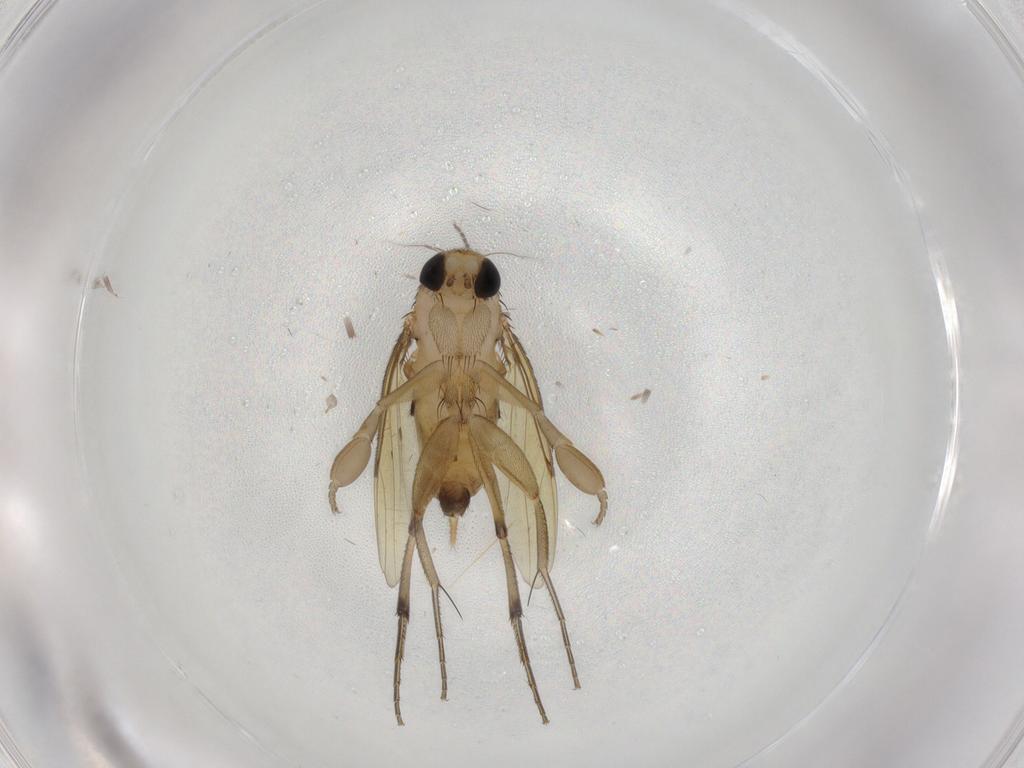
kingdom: Animalia
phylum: Arthropoda
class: Insecta
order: Diptera
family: Phoridae
